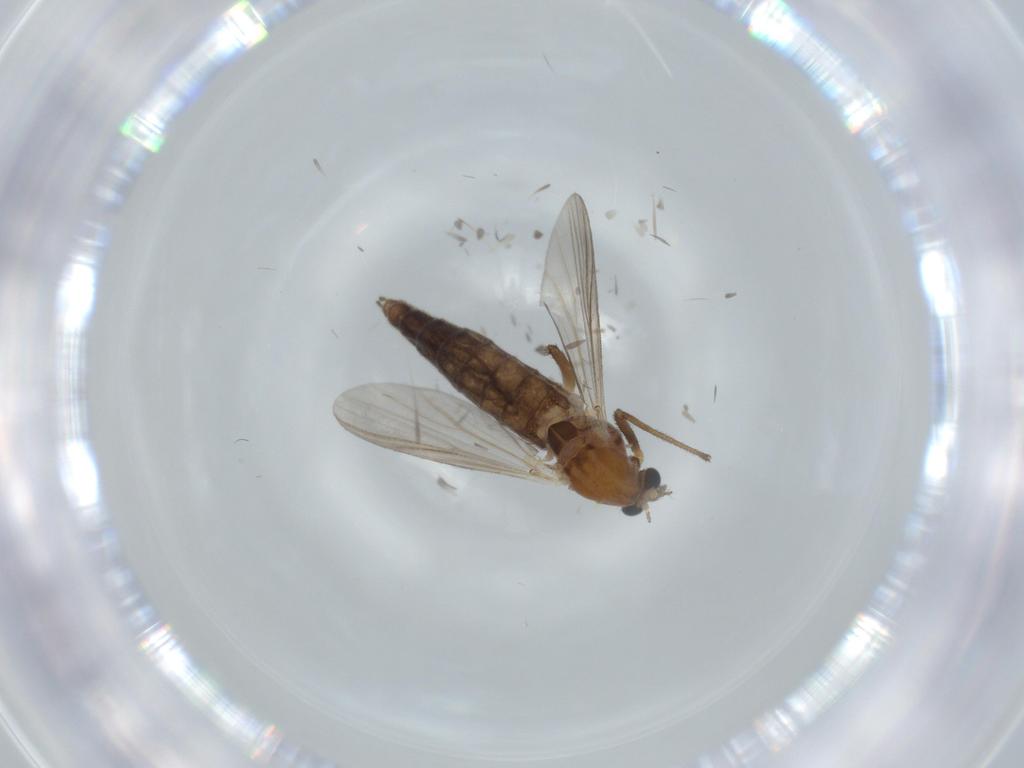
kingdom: Animalia
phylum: Arthropoda
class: Insecta
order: Diptera
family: Chironomidae
